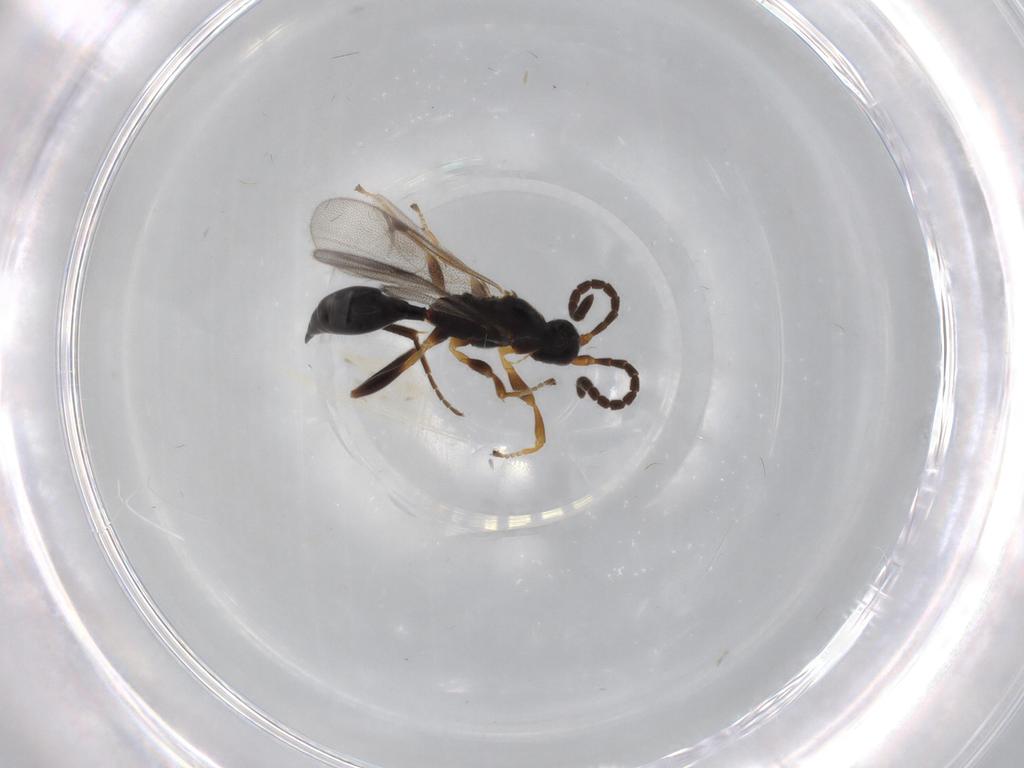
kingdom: Animalia
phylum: Arthropoda
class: Insecta
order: Hymenoptera
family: Proctotrupidae
